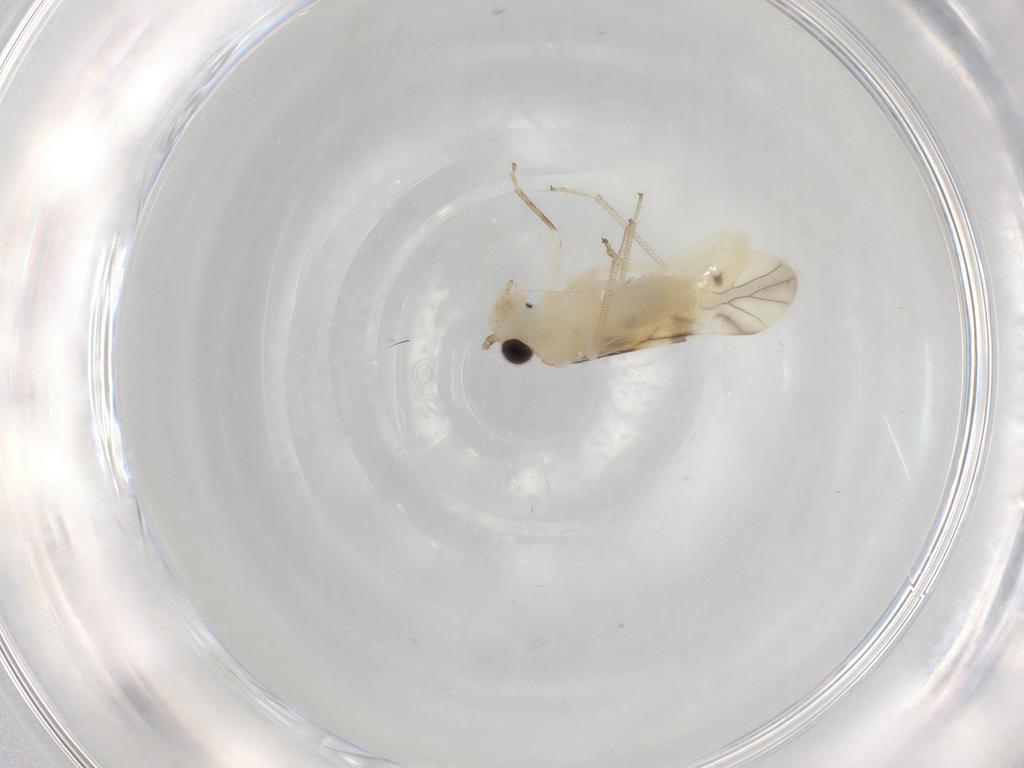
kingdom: Animalia
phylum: Arthropoda
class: Insecta
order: Psocodea
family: Caeciliusidae
